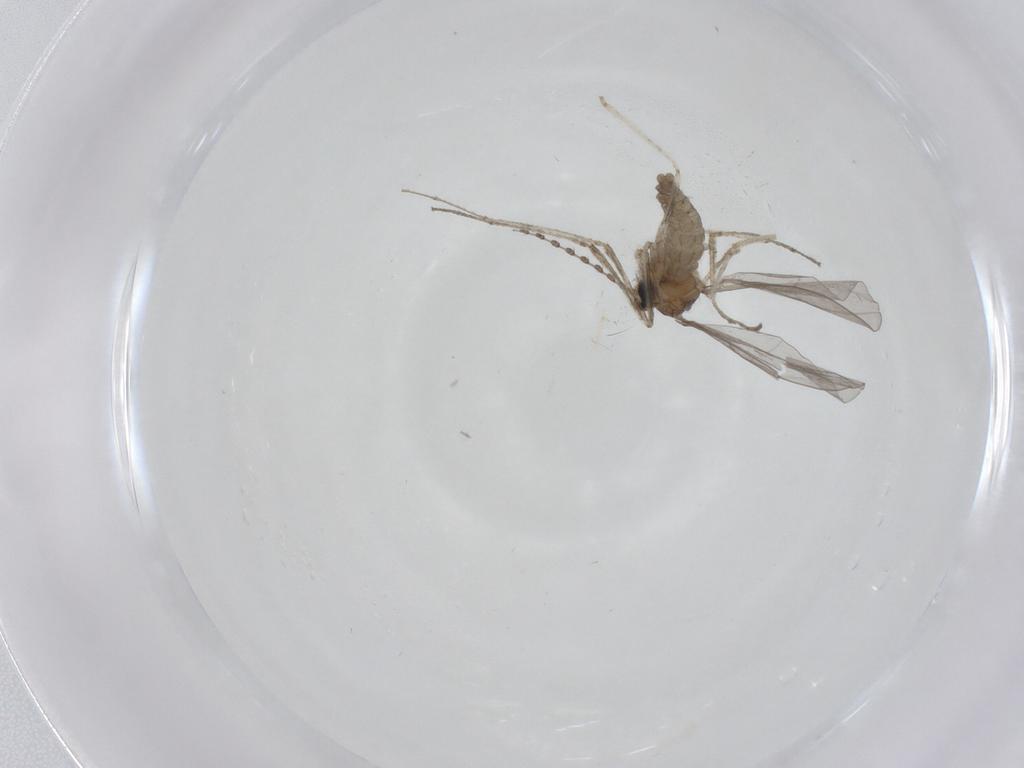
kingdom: Animalia
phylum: Arthropoda
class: Insecta
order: Diptera
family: Cecidomyiidae
